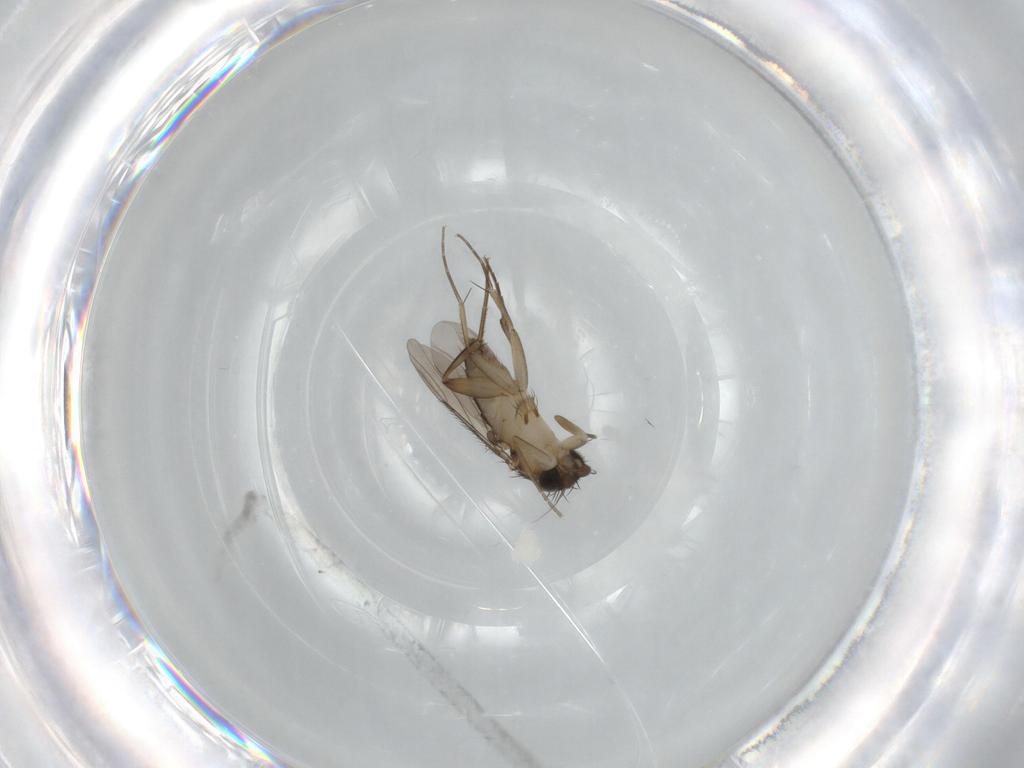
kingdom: Animalia
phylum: Arthropoda
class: Insecta
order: Diptera
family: Phoridae
